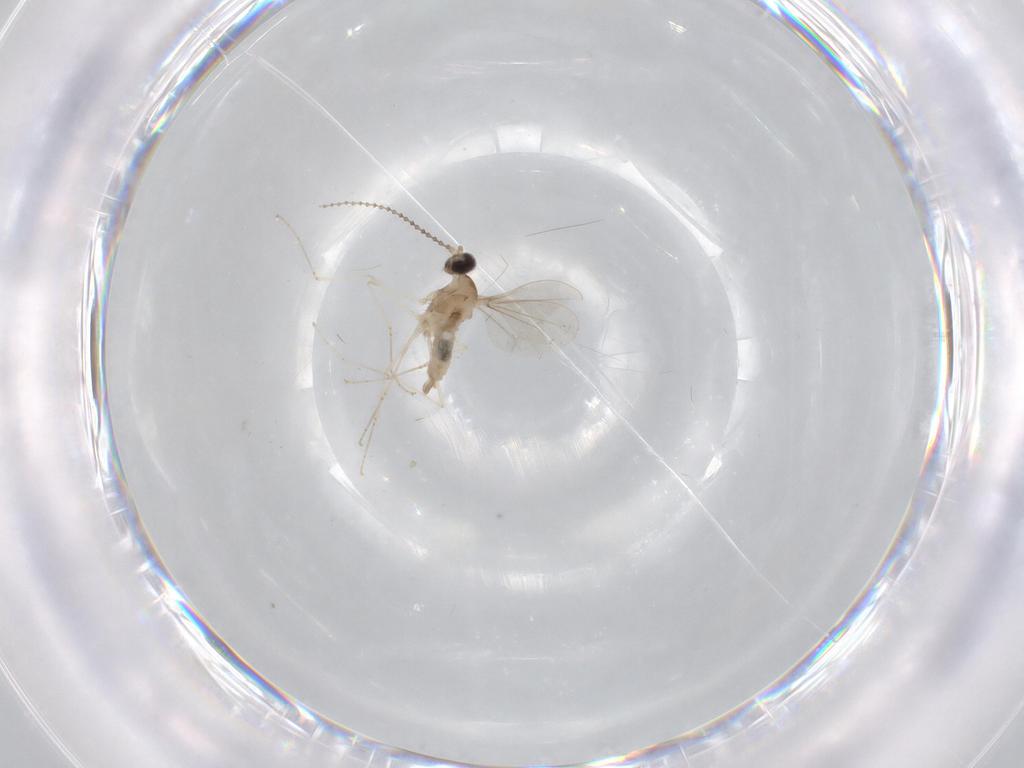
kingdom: Animalia
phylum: Arthropoda
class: Insecta
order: Diptera
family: Cecidomyiidae
